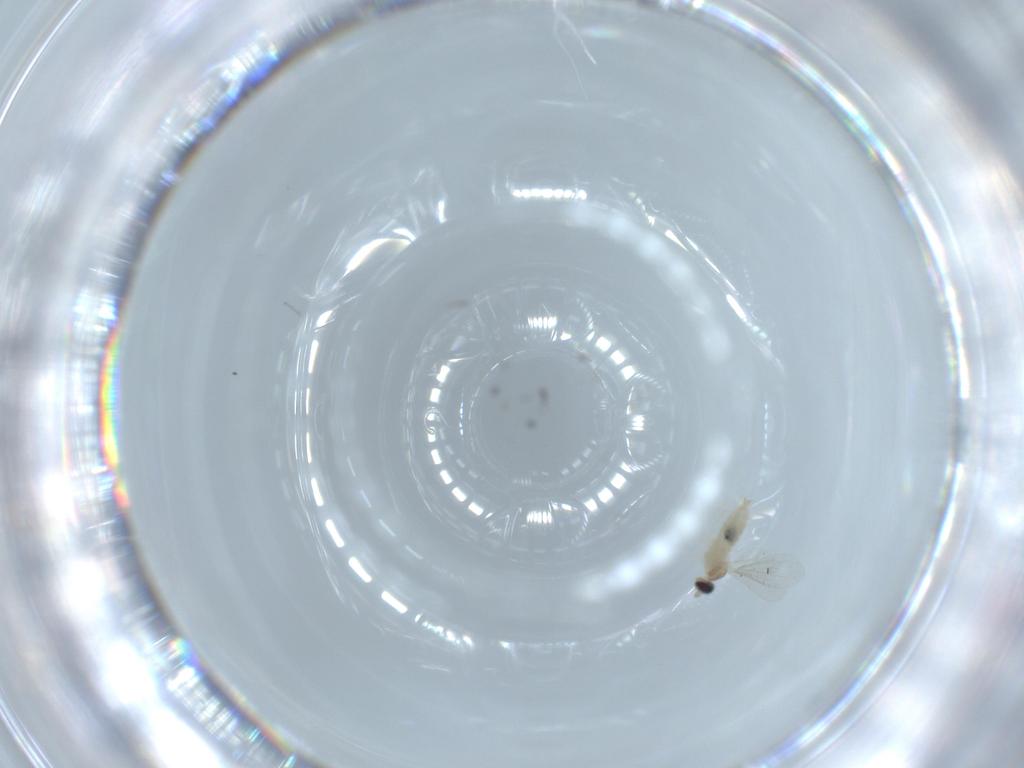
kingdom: Animalia
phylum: Arthropoda
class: Insecta
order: Diptera
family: Cecidomyiidae
